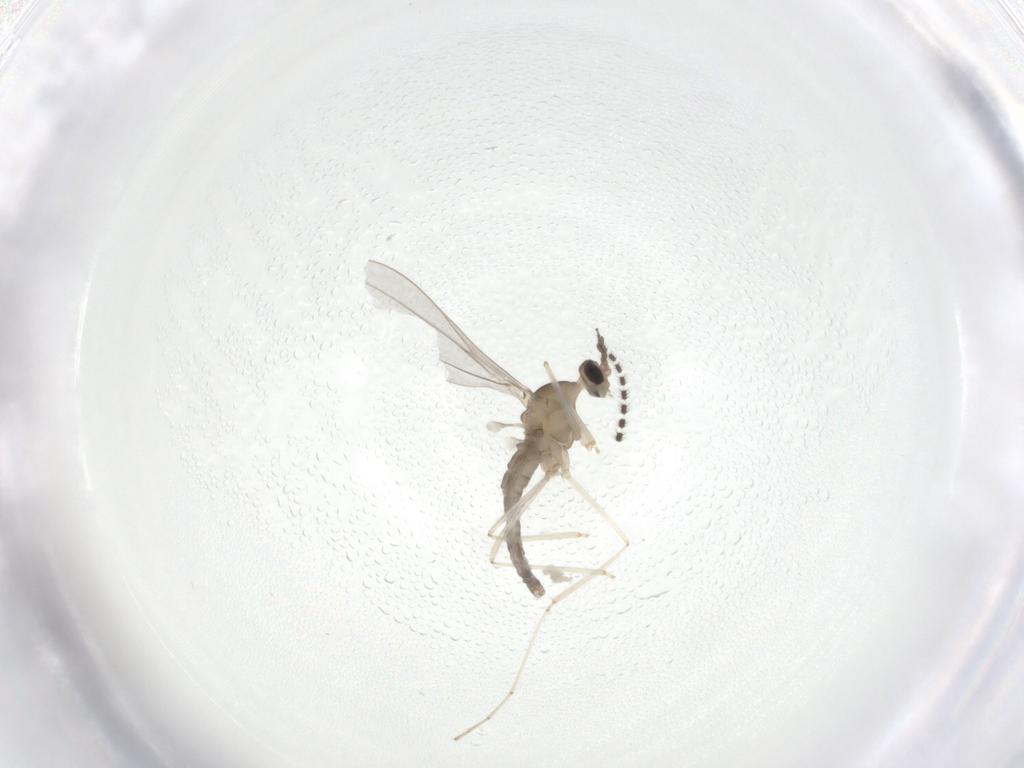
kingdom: Animalia
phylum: Arthropoda
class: Insecta
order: Diptera
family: Sciaridae
